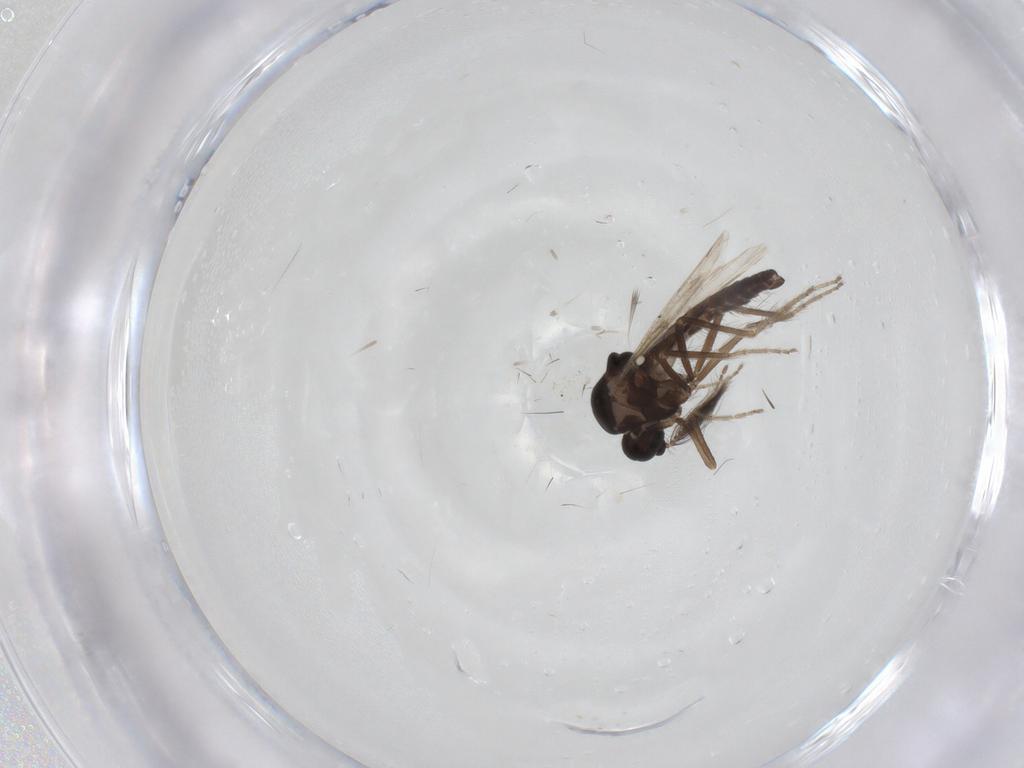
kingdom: Animalia
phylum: Arthropoda
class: Insecta
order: Diptera
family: Ceratopogonidae
